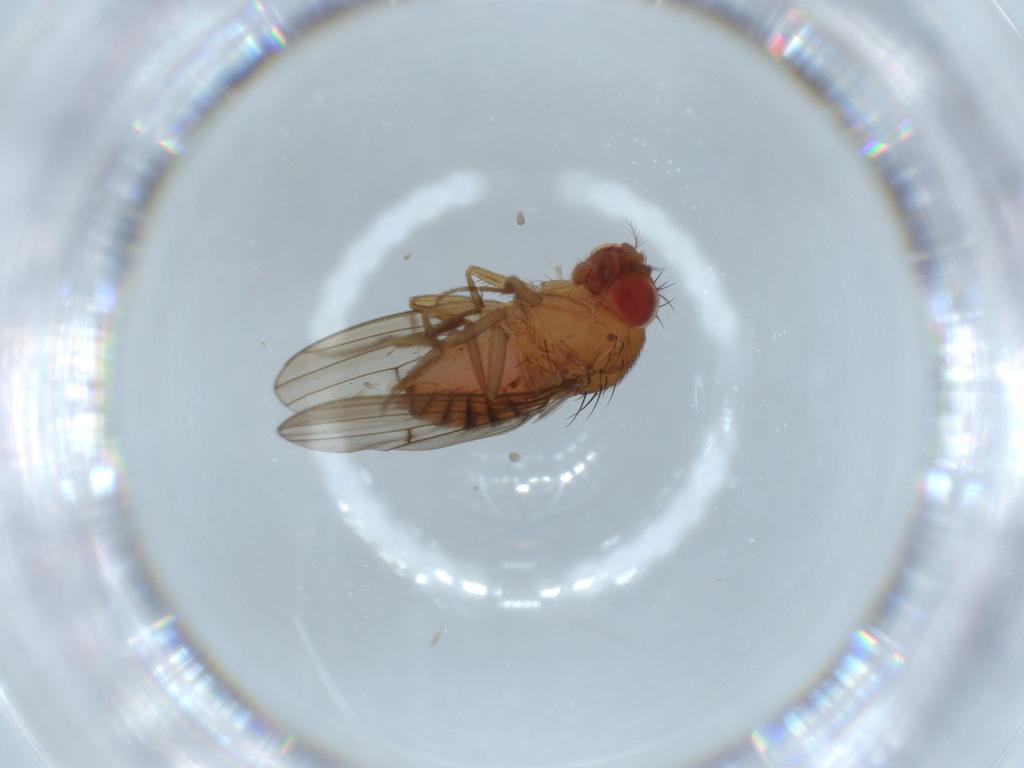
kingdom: Animalia
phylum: Arthropoda
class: Insecta
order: Diptera
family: Drosophilidae
